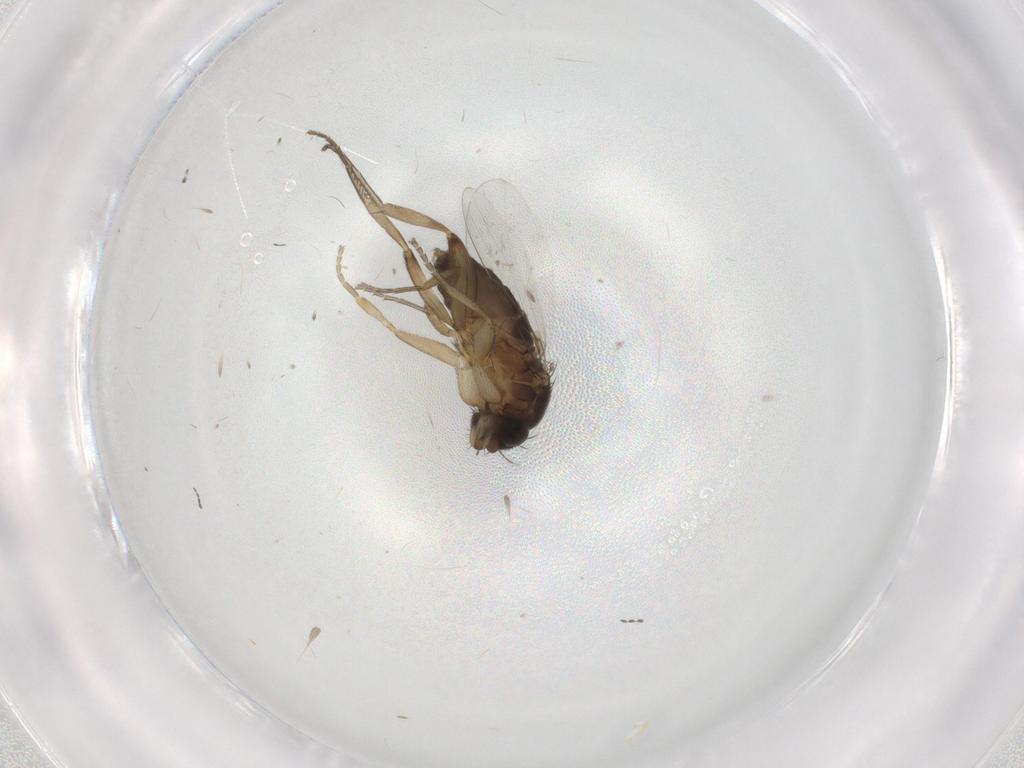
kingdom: Animalia
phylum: Arthropoda
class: Insecta
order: Diptera
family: Phoridae
